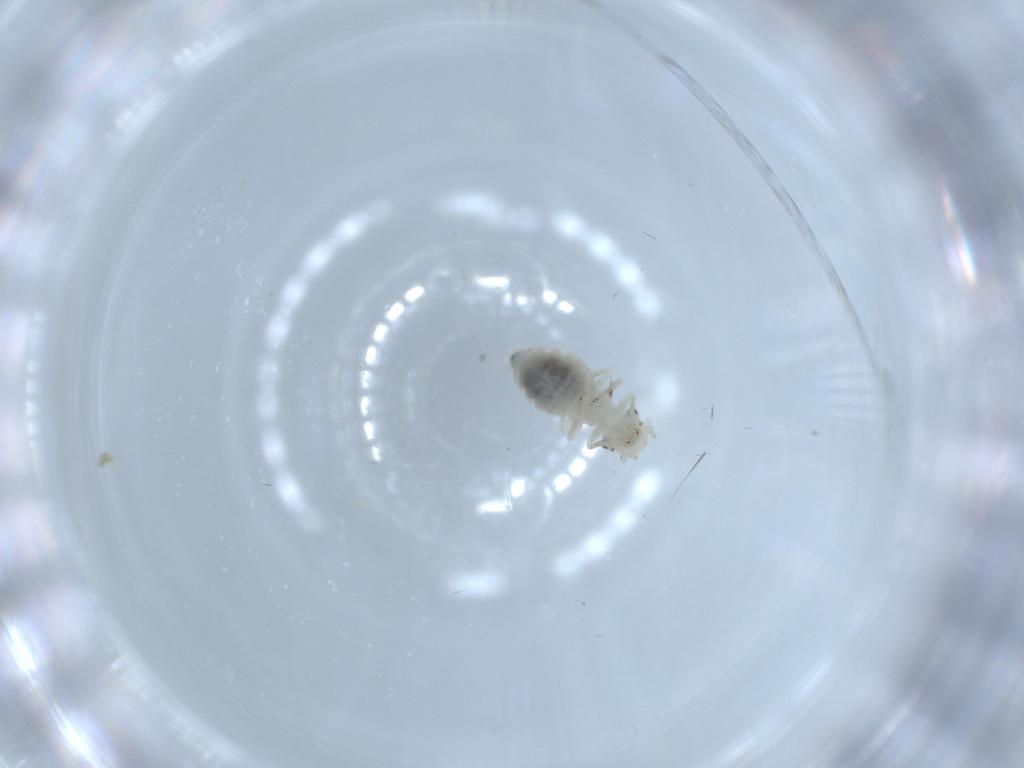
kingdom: Animalia
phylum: Arthropoda
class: Insecta
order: Psocodea
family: Caeciliusidae
